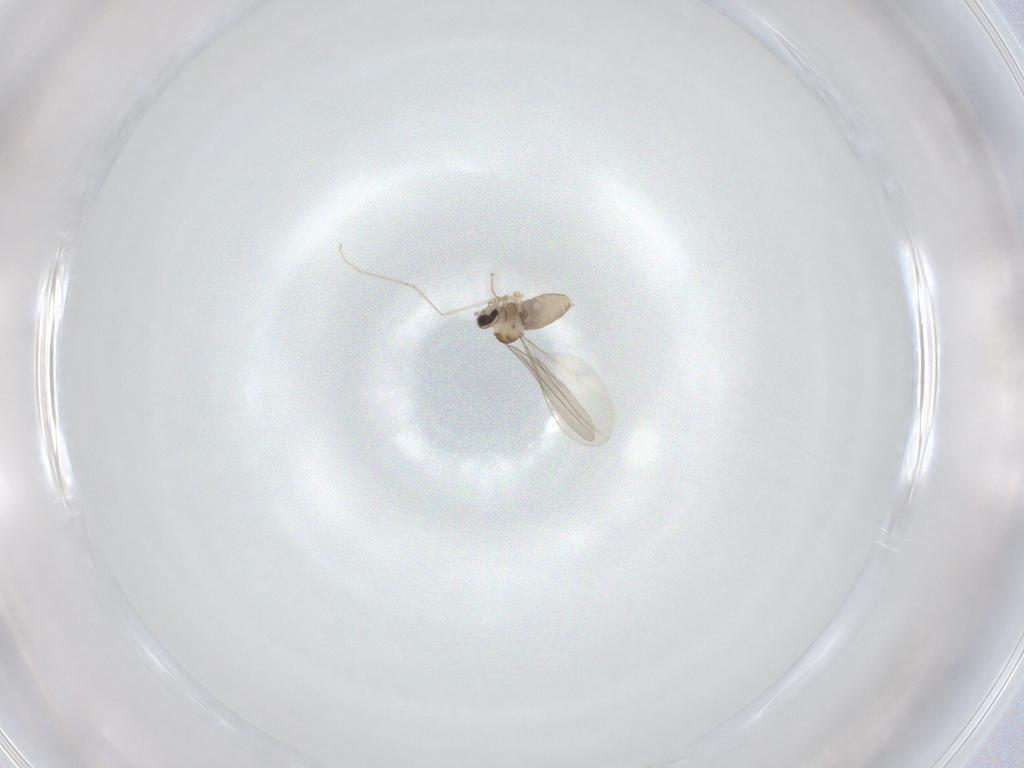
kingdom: Animalia
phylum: Arthropoda
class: Insecta
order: Diptera
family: Cecidomyiidae
